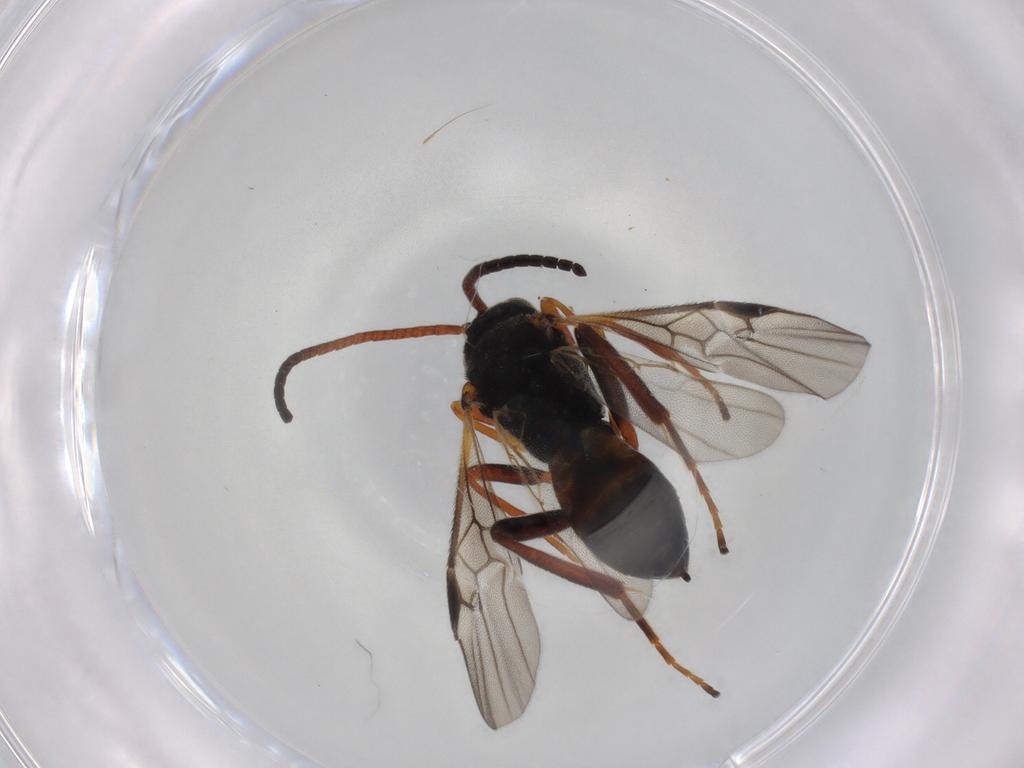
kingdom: Animalia
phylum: Arthropoda
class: Insecta
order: Hymenoptera
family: Braconidae
